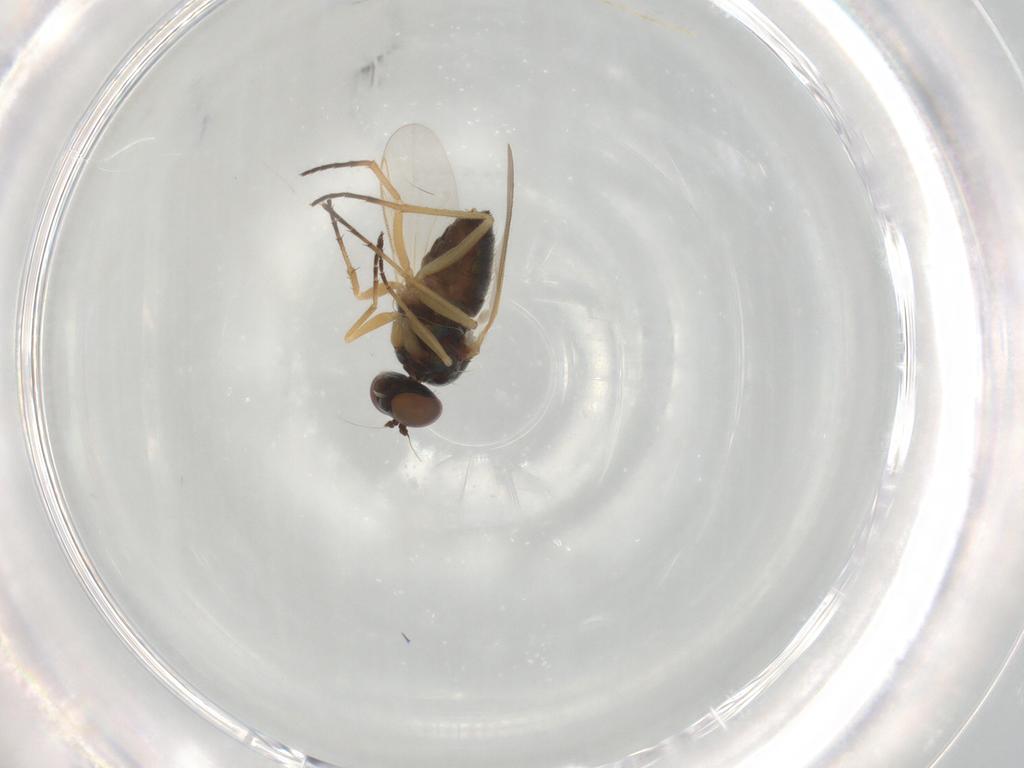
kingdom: Animalia
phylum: Arthropoda
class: Insecta
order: Diptera
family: Dolichopodidae
